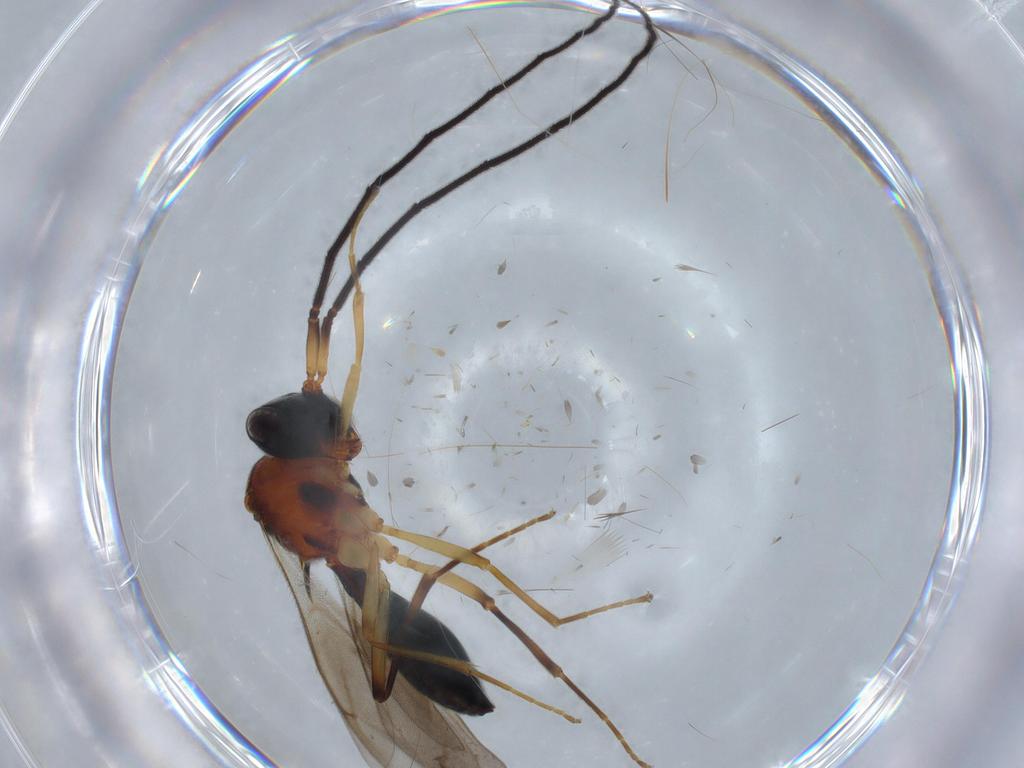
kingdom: Animalia
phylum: Arthropoda
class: Insecta
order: Hymenoptera
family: Scelionidae
